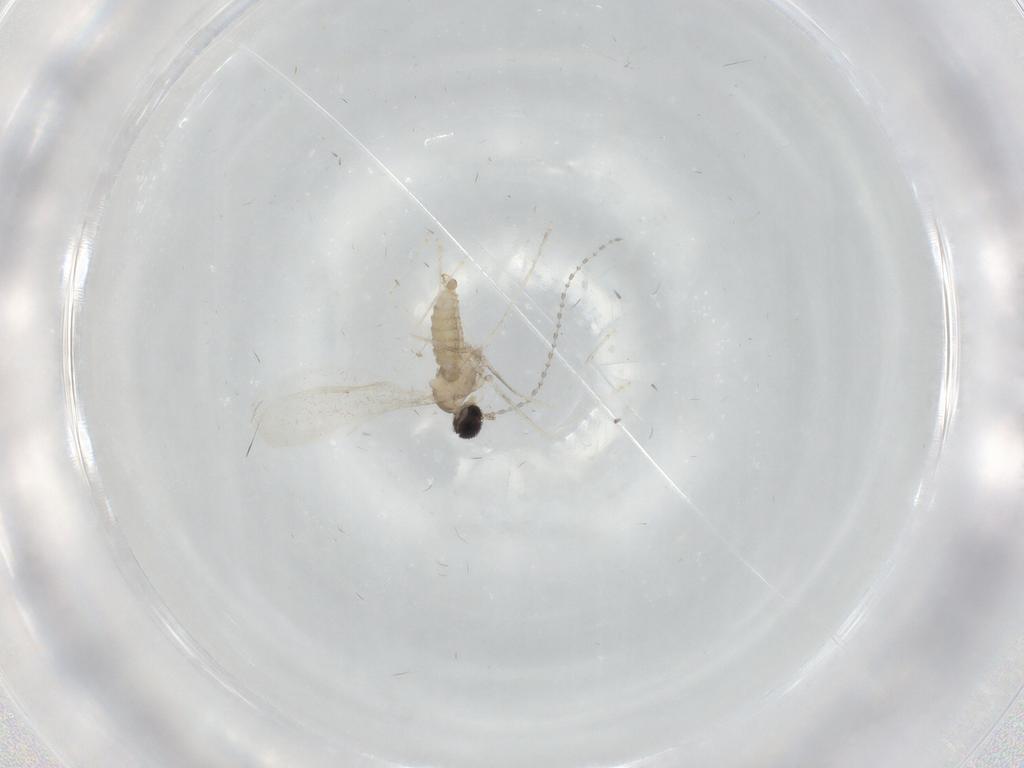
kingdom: Animalia
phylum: Arthropoda
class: Insecta
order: Diptera
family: Cecidomyiidae
